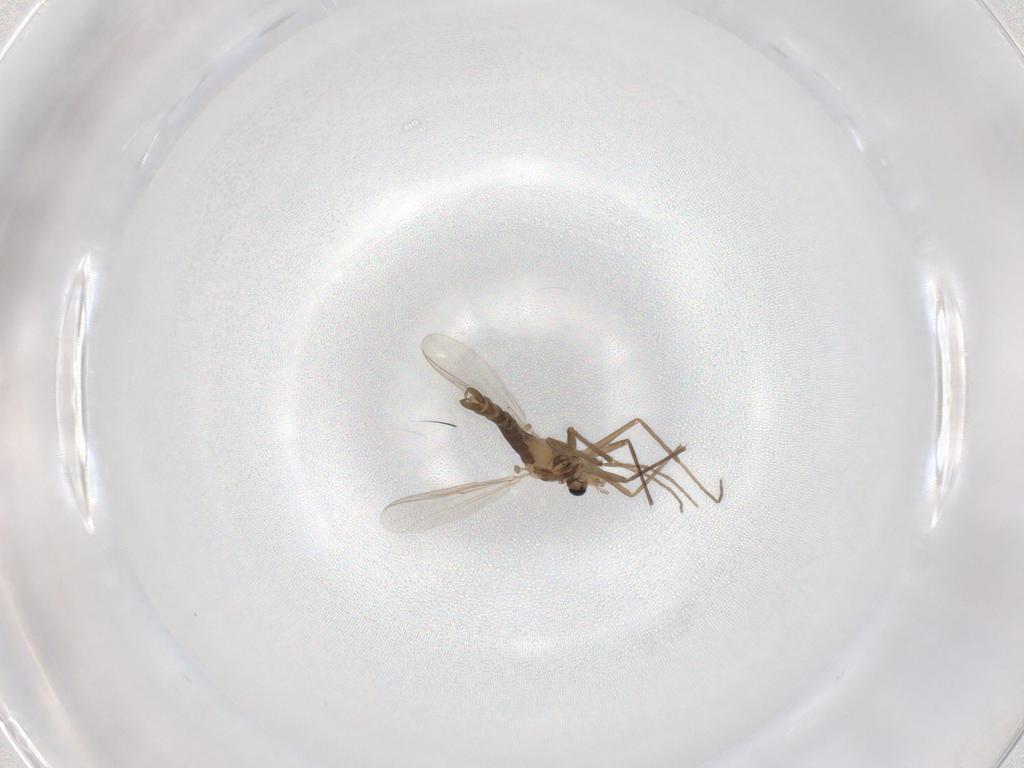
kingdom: Animalia
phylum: Arthropoda
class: Insecta
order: Diptera
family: Chironomidae
